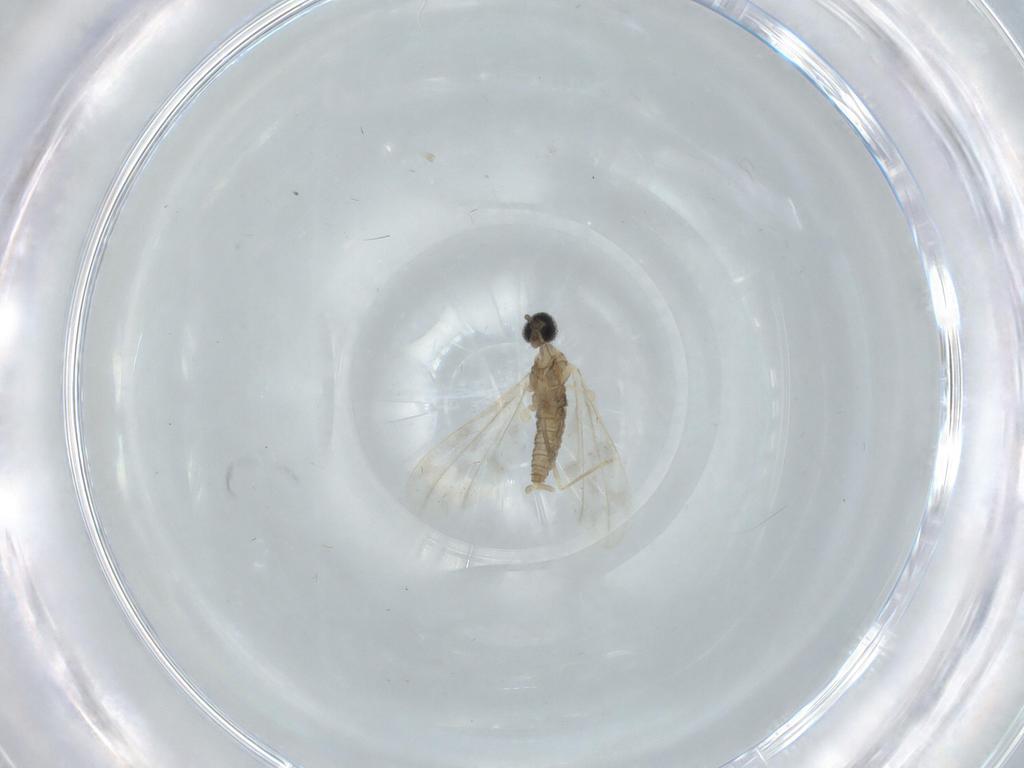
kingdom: Animalia
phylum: Arthropoda
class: Insecta
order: Diptera
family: Cecidomyiidae
